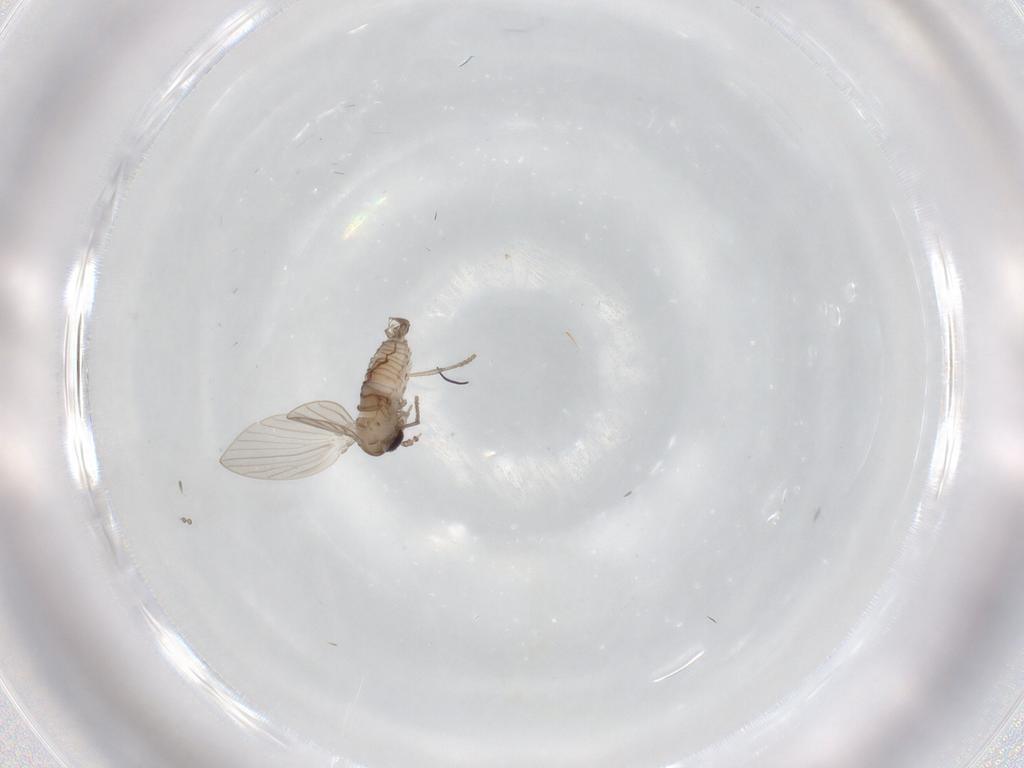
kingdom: Animalia
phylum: Arthropoda
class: Insecta
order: Diptera
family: Psychodidae
